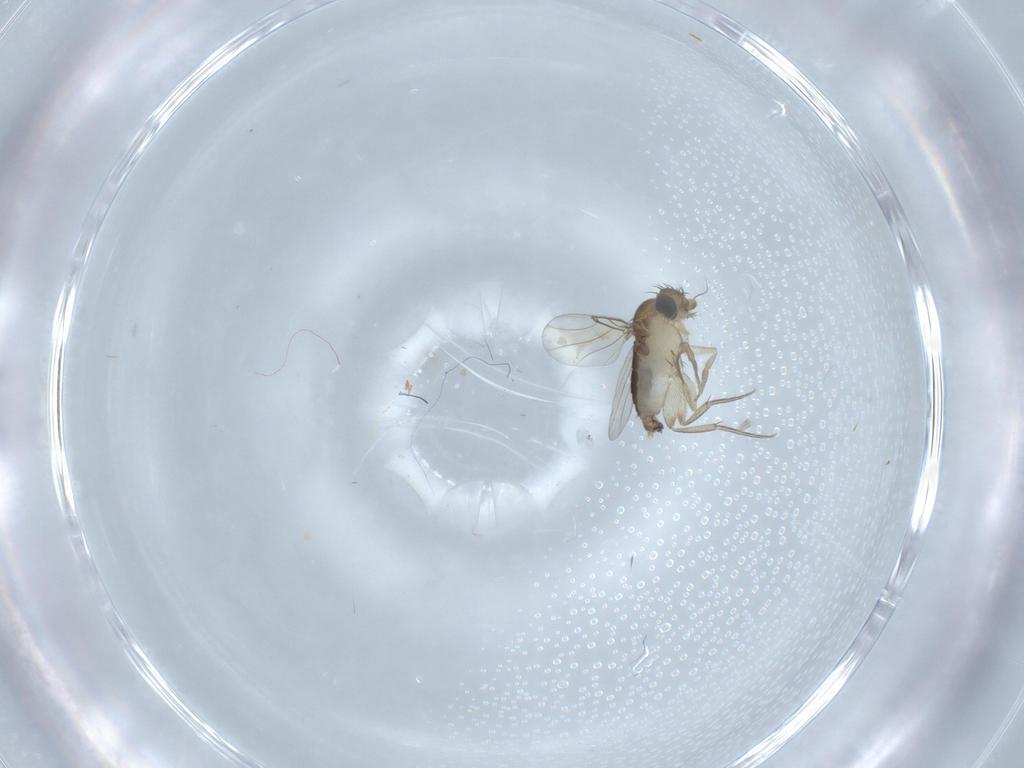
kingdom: Animalia
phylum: Arthropoda
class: Insecta
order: Diptera
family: Phoridae
